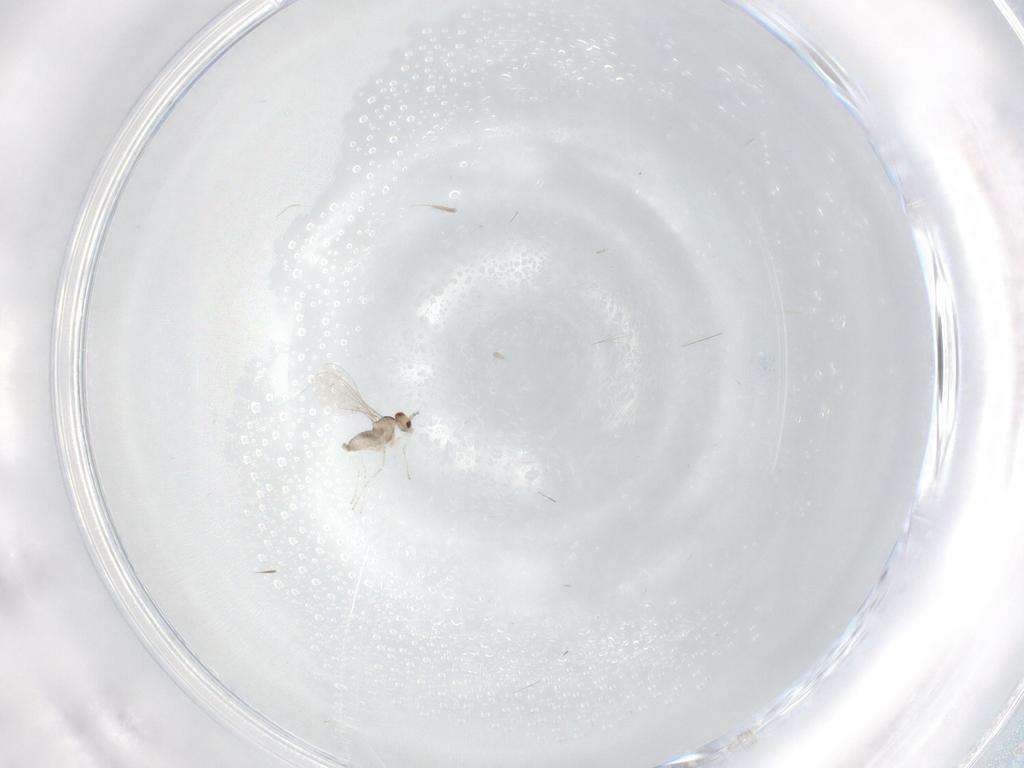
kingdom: Animalia
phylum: Arthropoda
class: Insecta
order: Diptera
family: Cecidomyiidae
